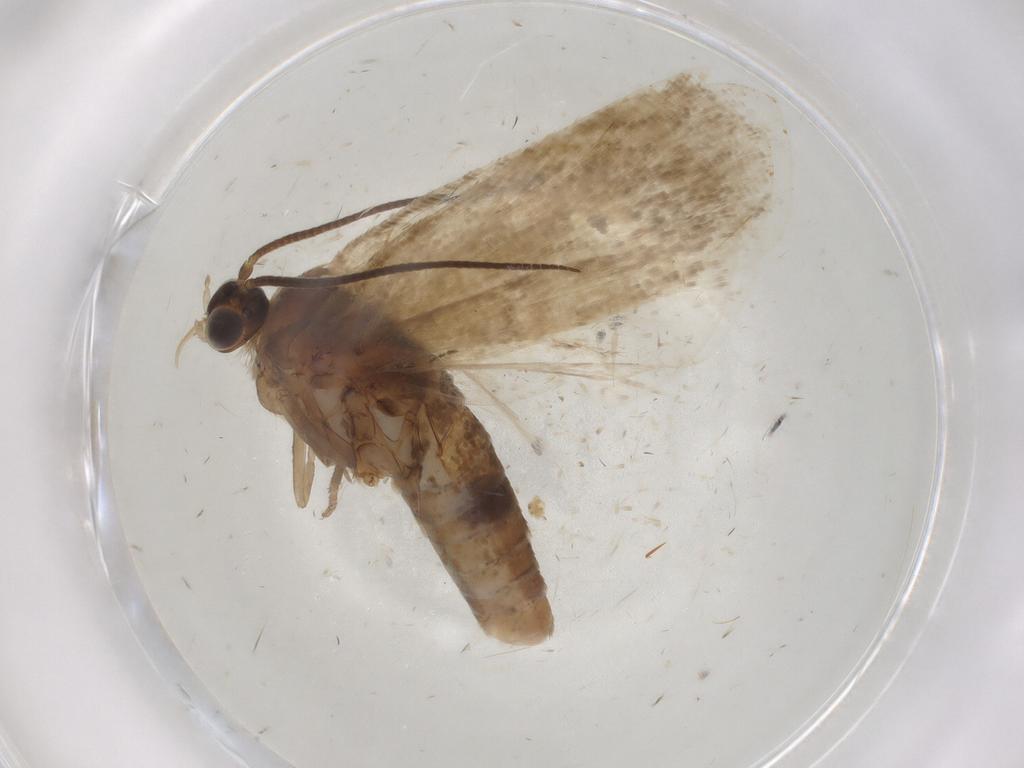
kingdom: Animalia
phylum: Arthropoda
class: Insecta
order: Lepidoptera
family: Tortricidae
